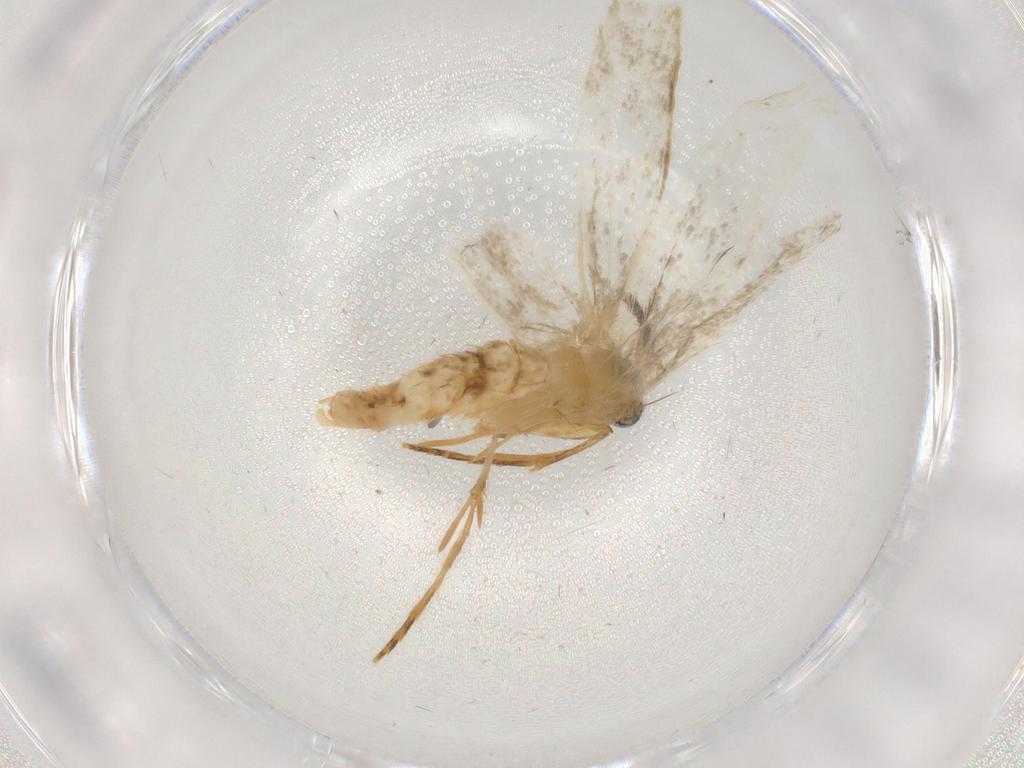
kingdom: Animalia
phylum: Arthropoda
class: Insecta
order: Lepidoptera
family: Tineidae
